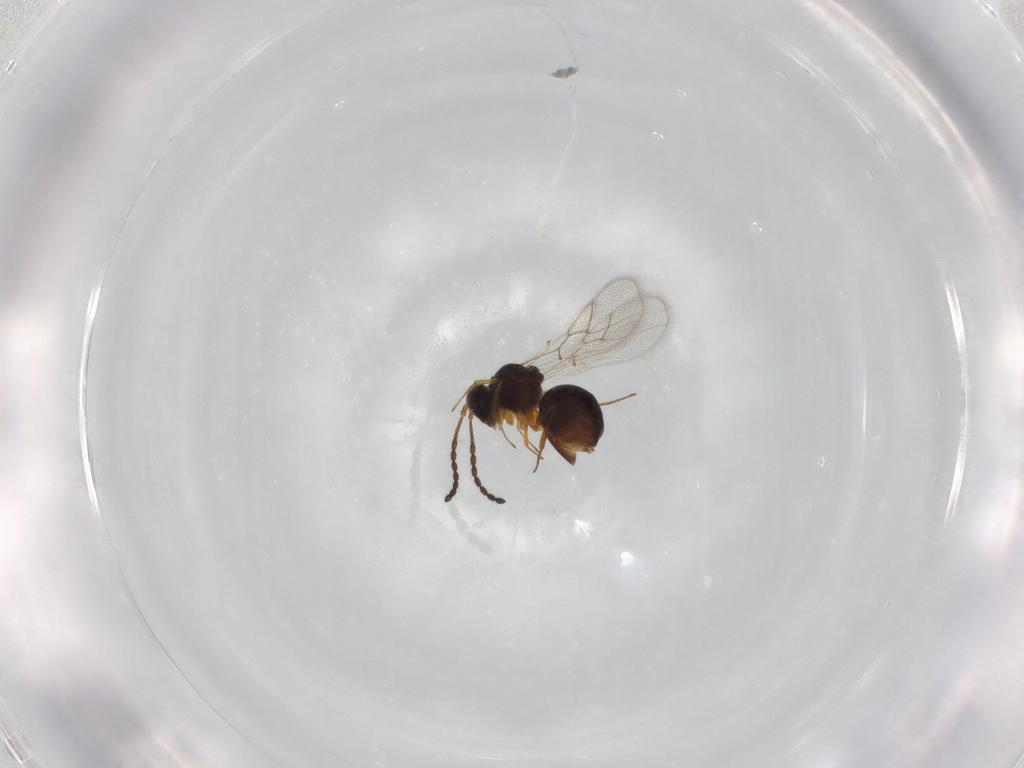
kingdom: Animalia
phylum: Arthropoda
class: Insecta
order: Hymenoptera
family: Figitidae
